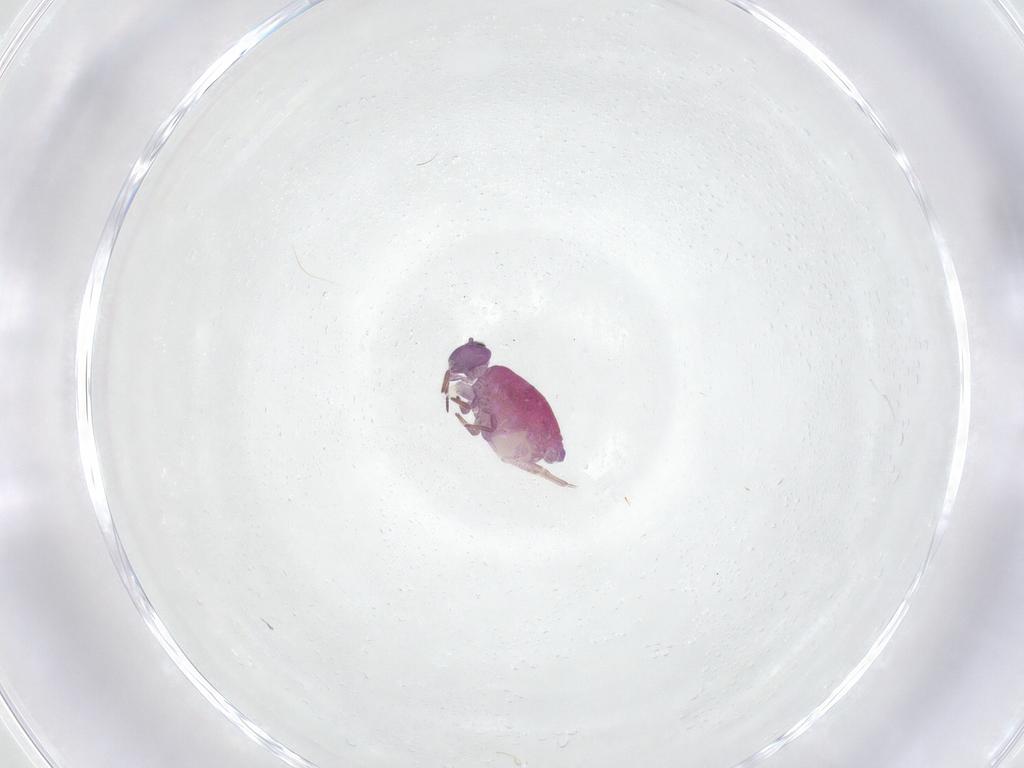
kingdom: Animalia
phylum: Arthropoda
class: Collembola
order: Symphypleona
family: Sminthuridae
